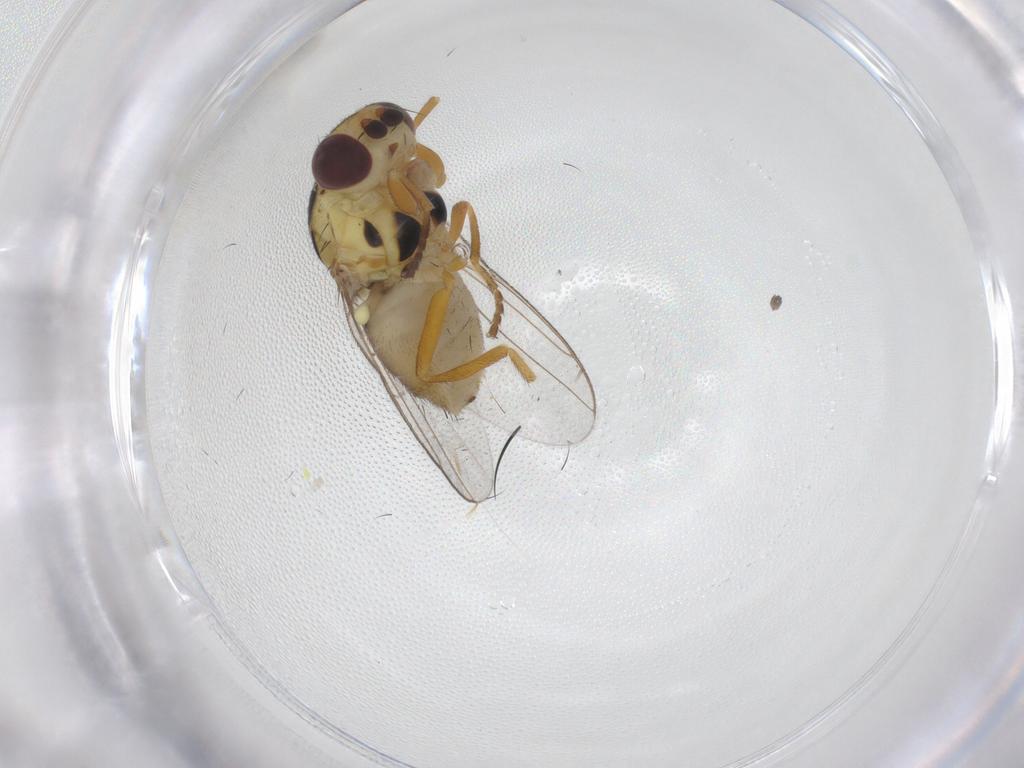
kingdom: Animalia
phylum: Arthropoda
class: Insecta
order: Diptera
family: Chloropidae
